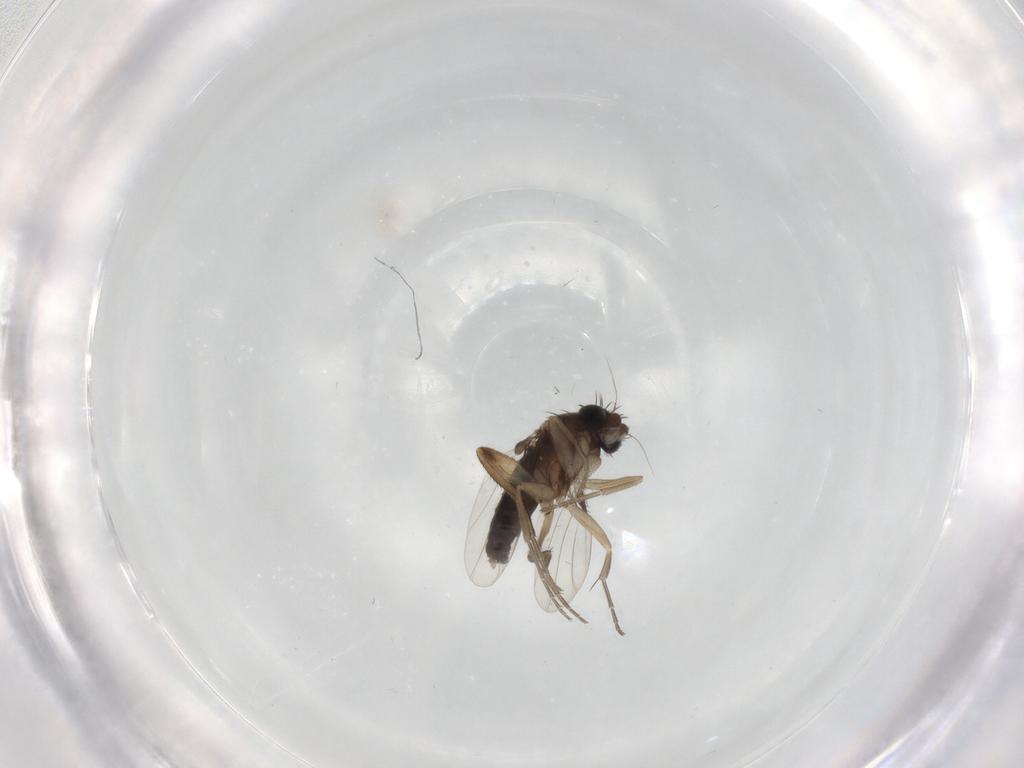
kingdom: Animalia
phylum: Arthropoda
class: Insecta
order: Diptera
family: Phoridae
